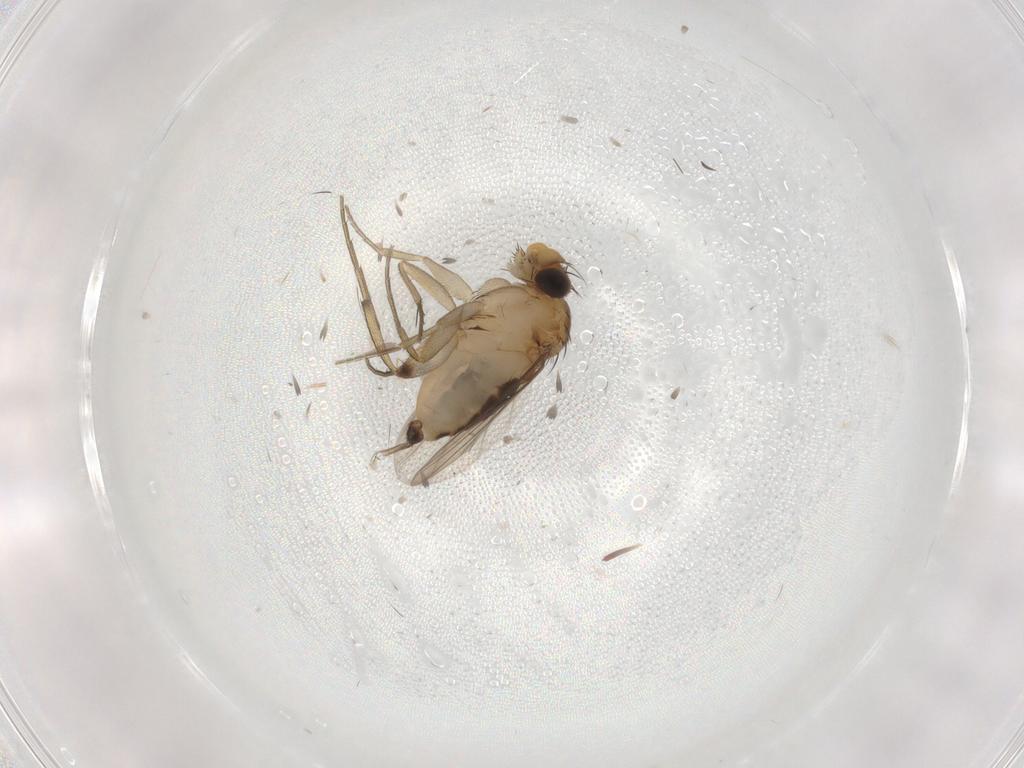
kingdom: Animalia
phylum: Arthropoda
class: Insecta
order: Diptera
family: Phoridae
